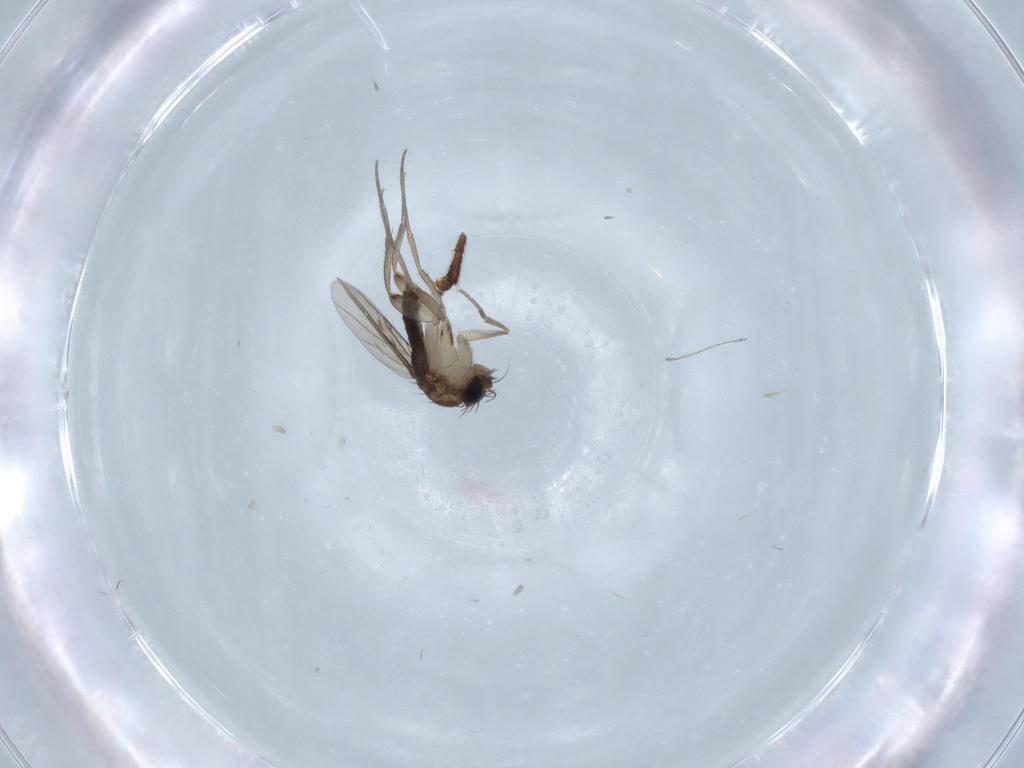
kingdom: Animalia
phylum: Arthropoda
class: Insecta
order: Diptera
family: Phoridae
